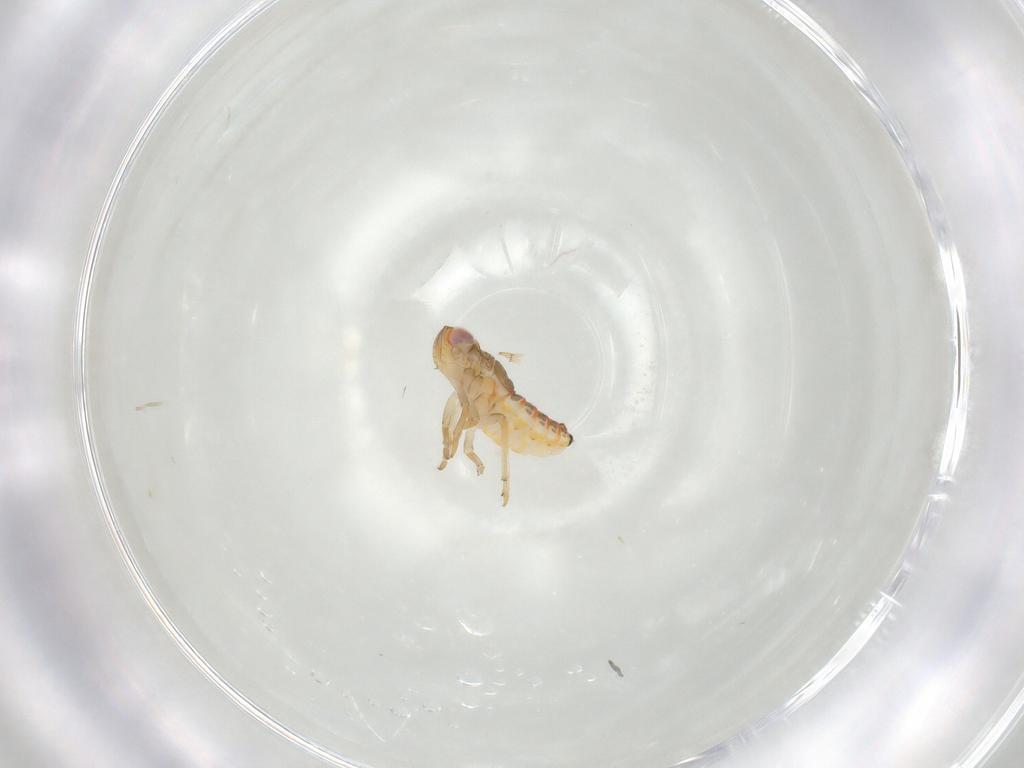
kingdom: Animalia
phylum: Arthropoda
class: Insecta
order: Hemiptera
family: Issidae
